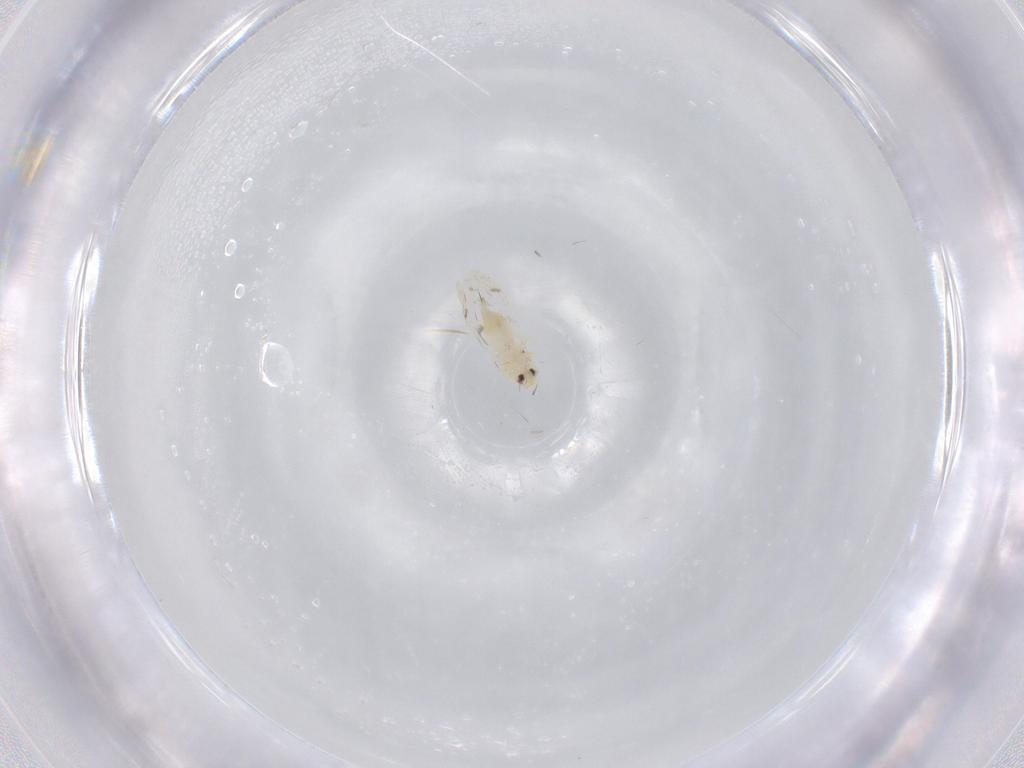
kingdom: Animalia
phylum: Arthropoda
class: Insecta
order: Hemiptera
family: Aleyrodidae
